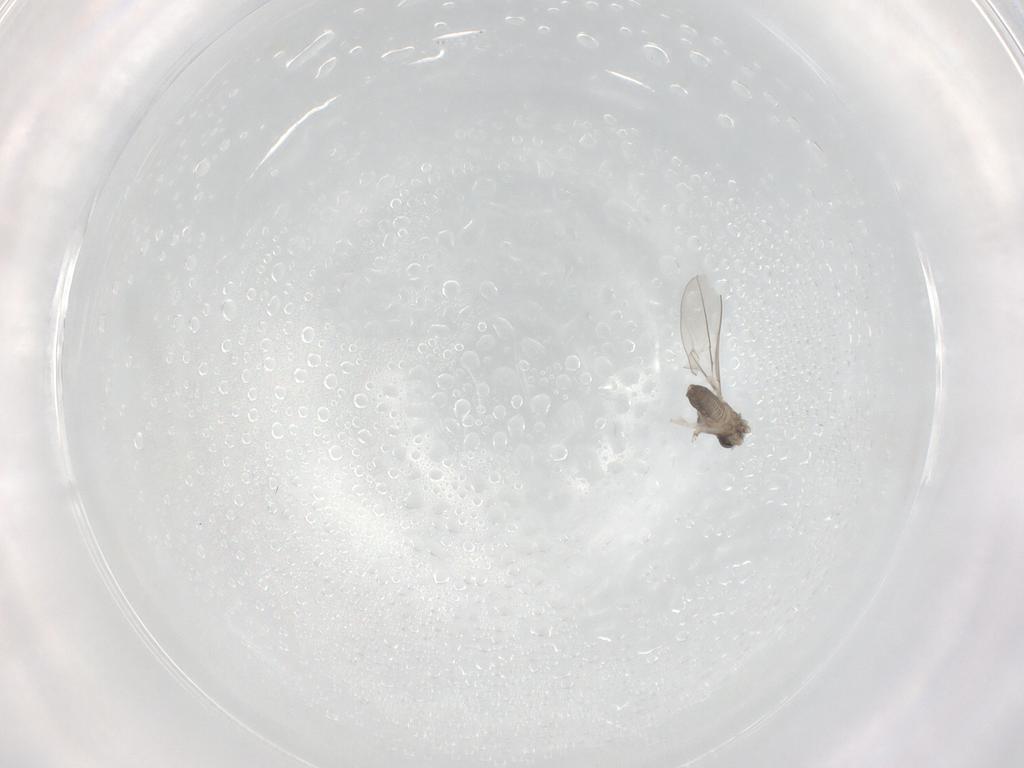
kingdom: Animalia
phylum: Arthropoda
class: Insecta
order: Diptera
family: Cecidomyiidae
